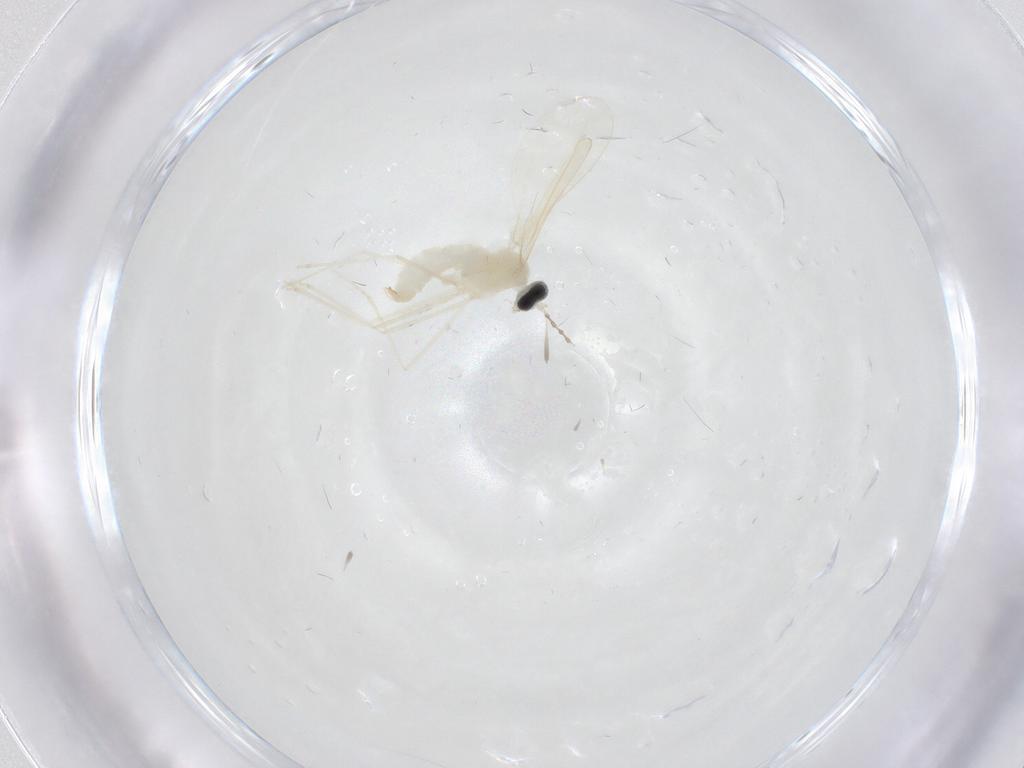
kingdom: Animalia
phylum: Arthropoda
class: Insecta
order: Diptera
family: Cecidomyiidae
